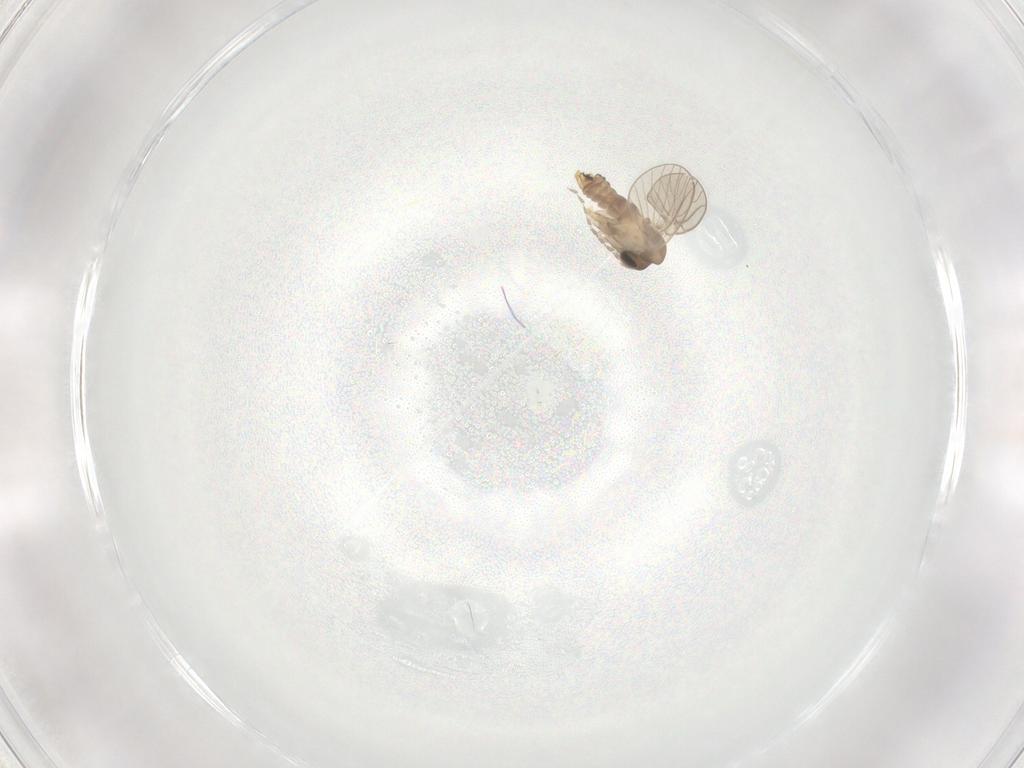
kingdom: Animalia
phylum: Arthropoda
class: Insecta
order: Diptera
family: Psychodidae
